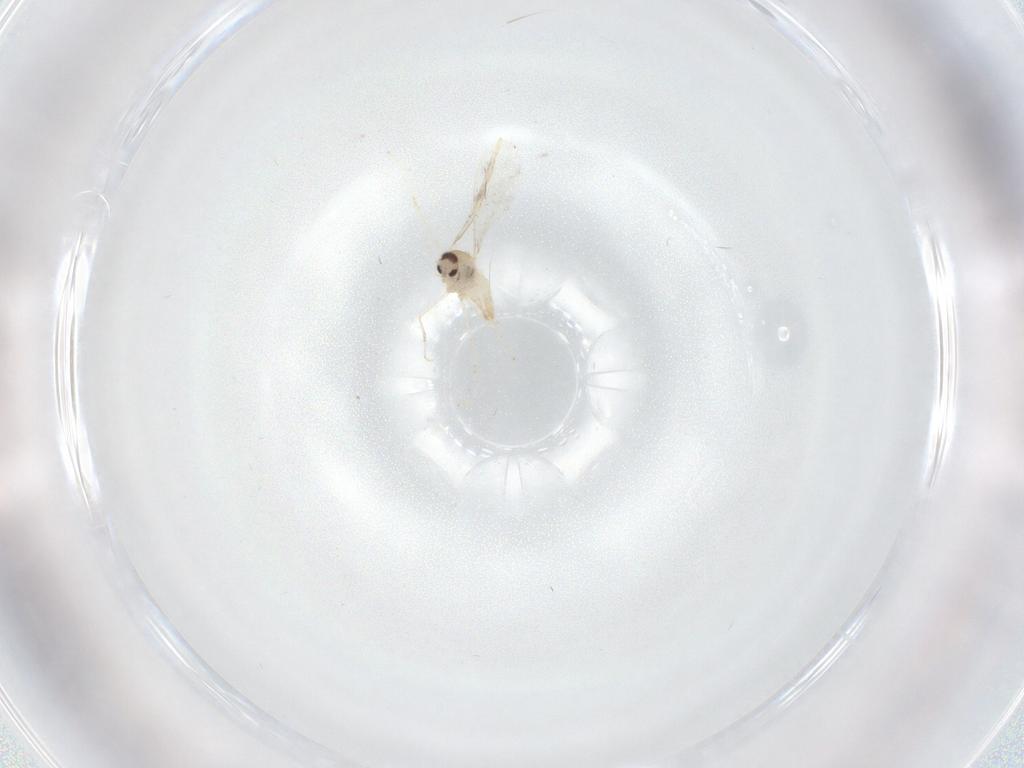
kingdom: Animalia
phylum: Arthropoda
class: Insecta
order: Diptera
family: Cecidomyiidae
